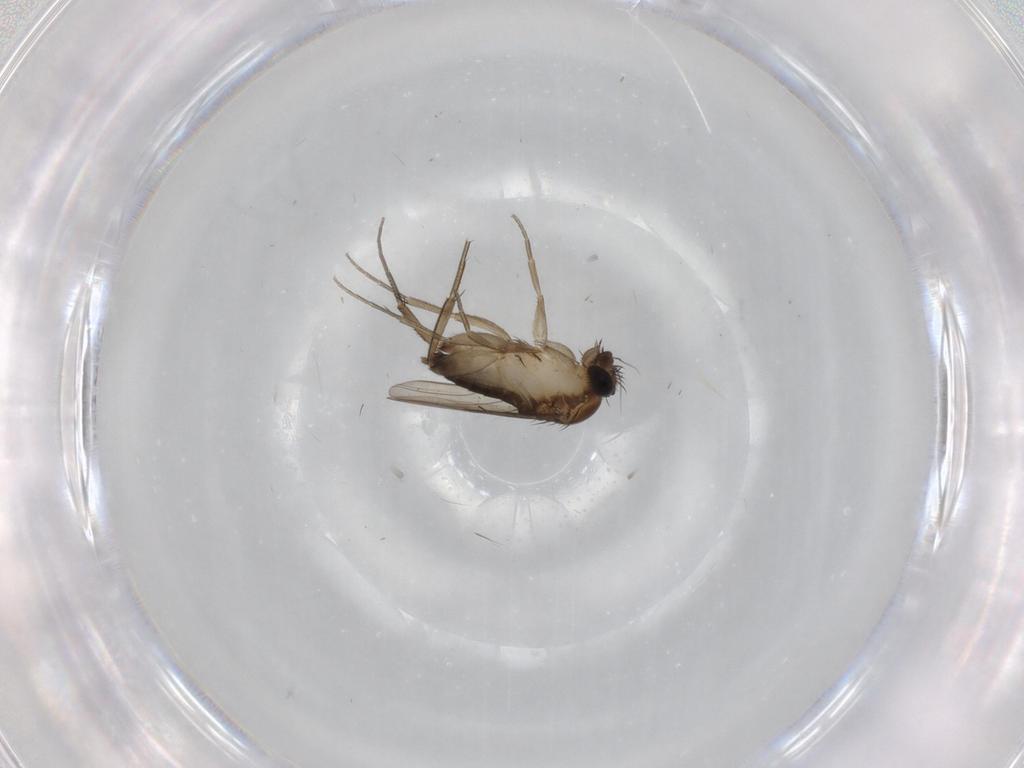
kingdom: Animalia
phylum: Arthropoda
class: Insecta
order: Diptera
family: Phoridae
